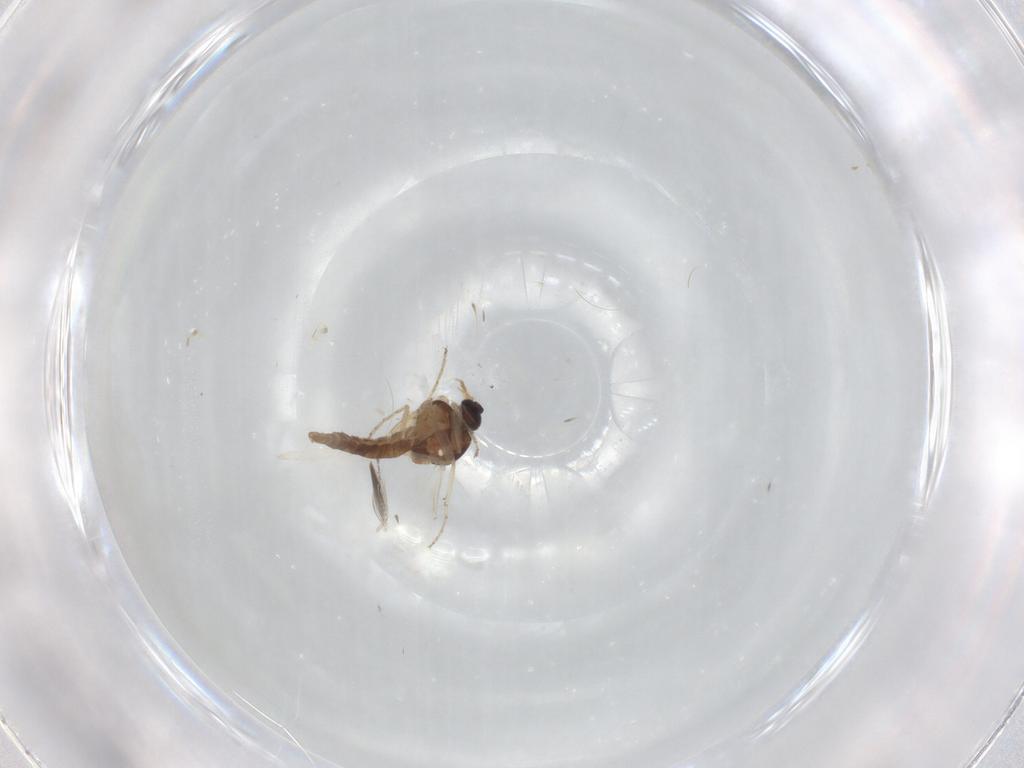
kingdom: Animalia
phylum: Arthropoda
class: Insecta
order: Diptera
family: Ceratopogonidae
